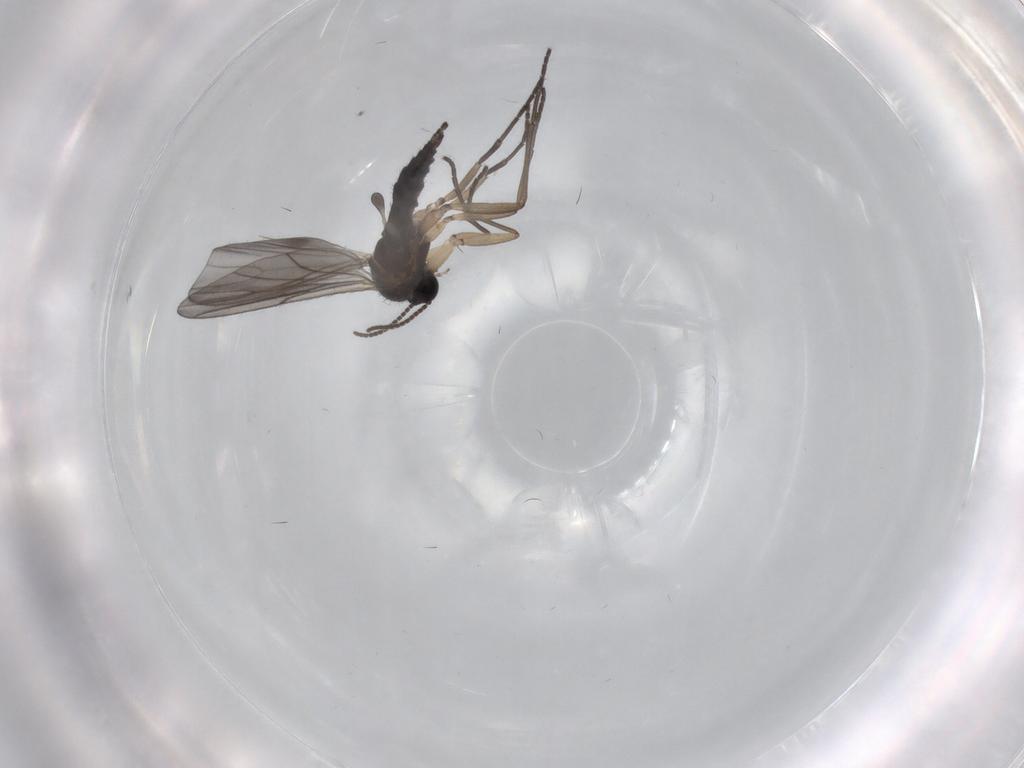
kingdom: Animalia
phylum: Arthropoda
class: Insecta
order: Diptera
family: Sciaridae
